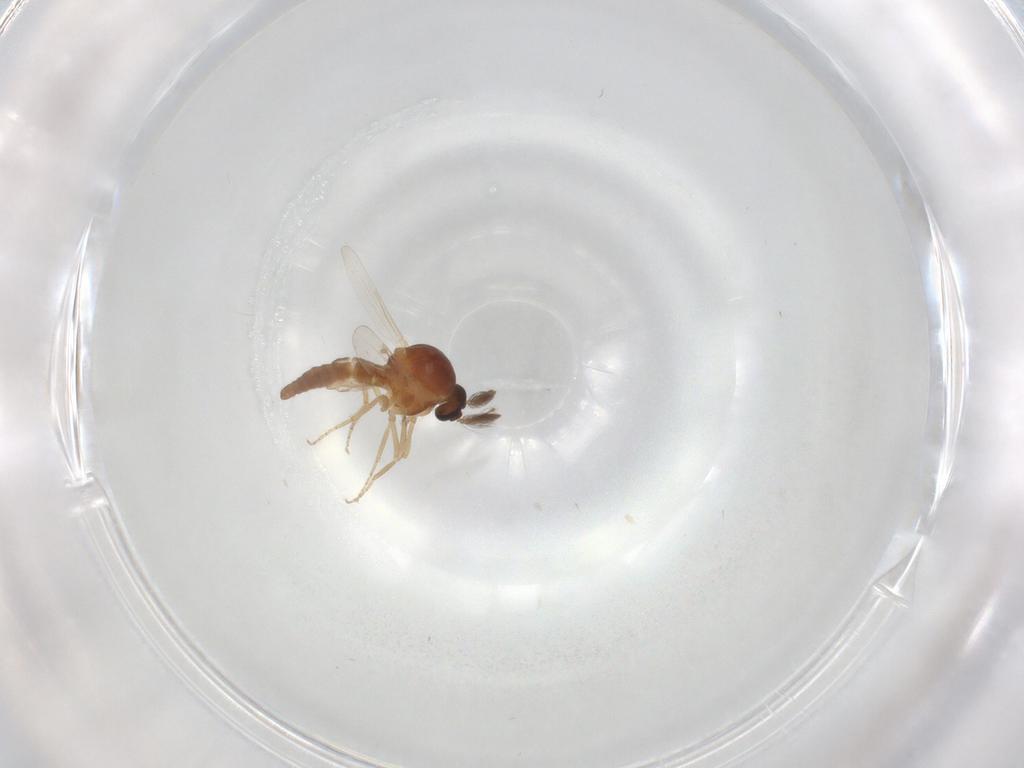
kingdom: Animalia
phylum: Arthropoda
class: Insecta
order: Diptera
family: Ceratopogonidae
